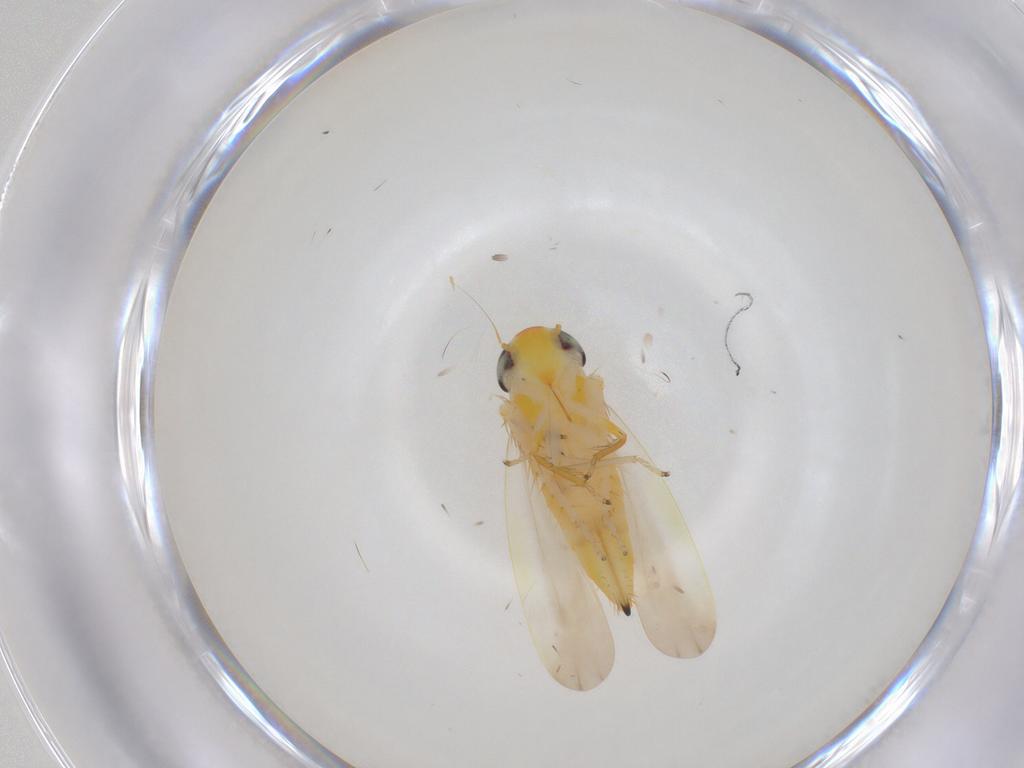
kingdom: Animalia
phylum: Arthropoda
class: Insecta
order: Hemiptera
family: Cicadellidae
